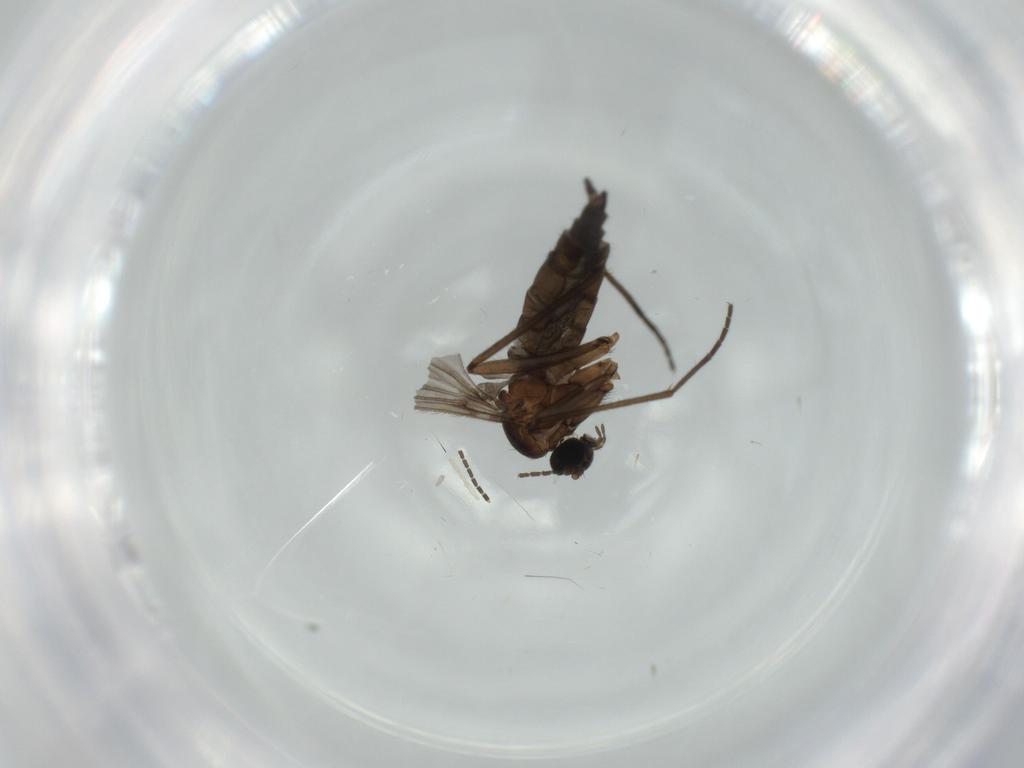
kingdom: Animalia
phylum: Arthropoda
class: Insecta
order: Diptera
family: Sciaridae
